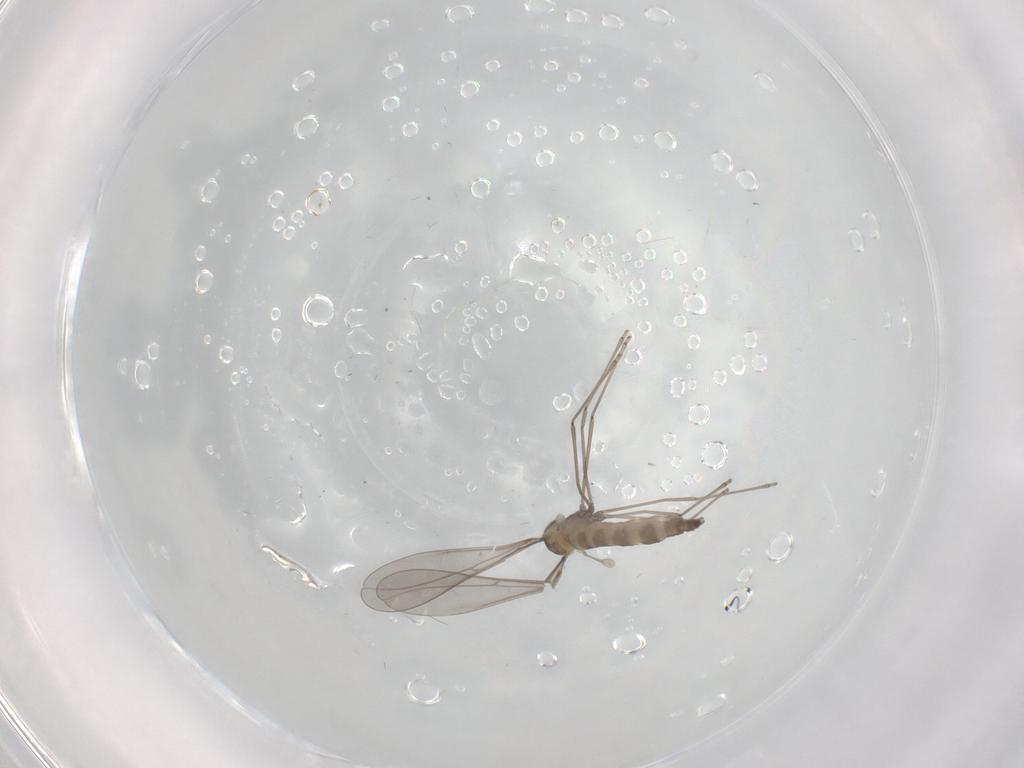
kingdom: Animalia
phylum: Arthropoda
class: Insecta
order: Diptera
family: Cecidomyiidae
